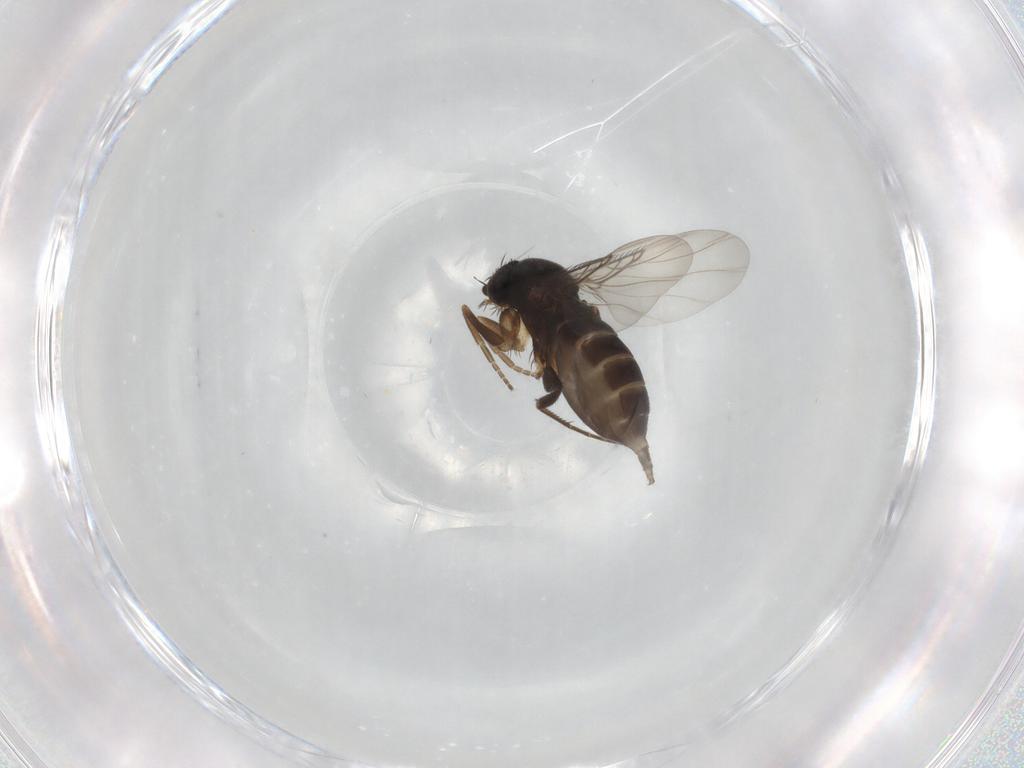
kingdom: Animalia
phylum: Arthropoda
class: Insecta
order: Diptera
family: Phoridae
